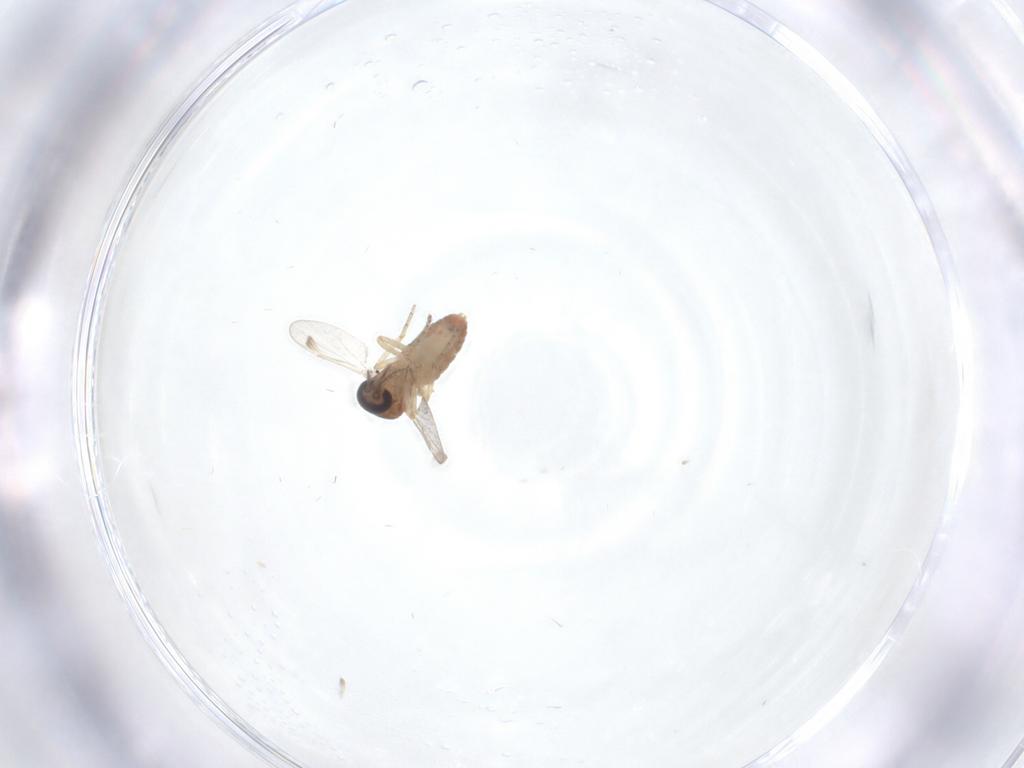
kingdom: Animalia
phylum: Arthropoda
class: Insecta
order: Diptera
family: Ceratopogonidae
